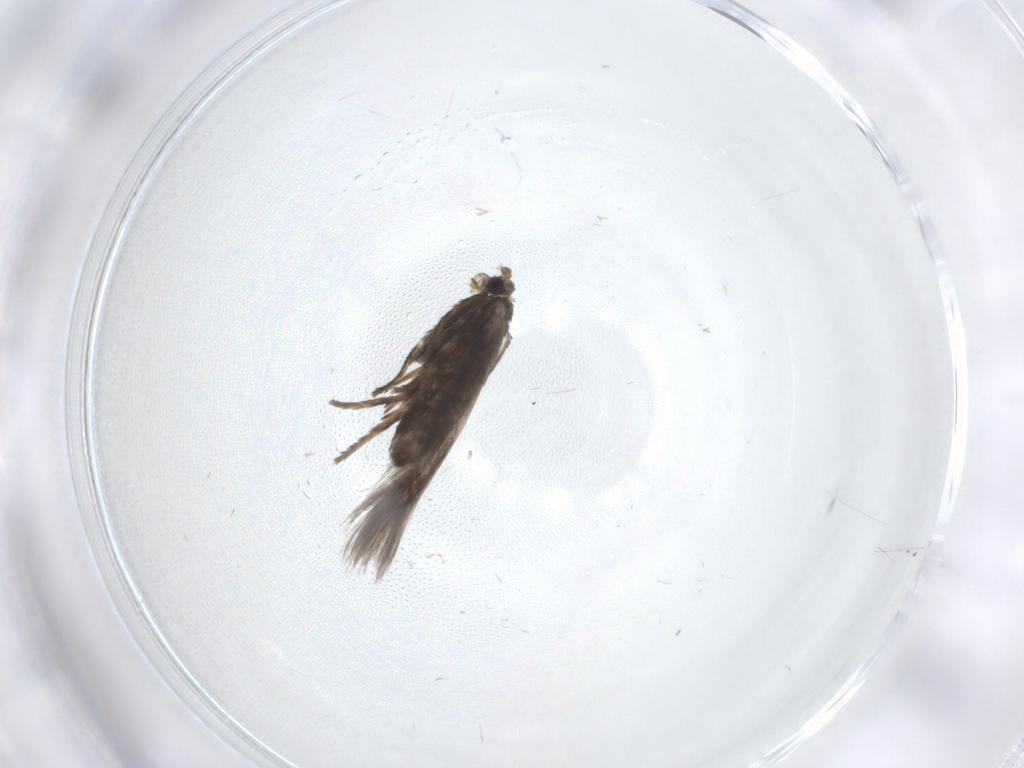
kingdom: Animalia
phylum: Arthropoda
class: Insecta
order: Lepidoptera
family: Nepticulidae
